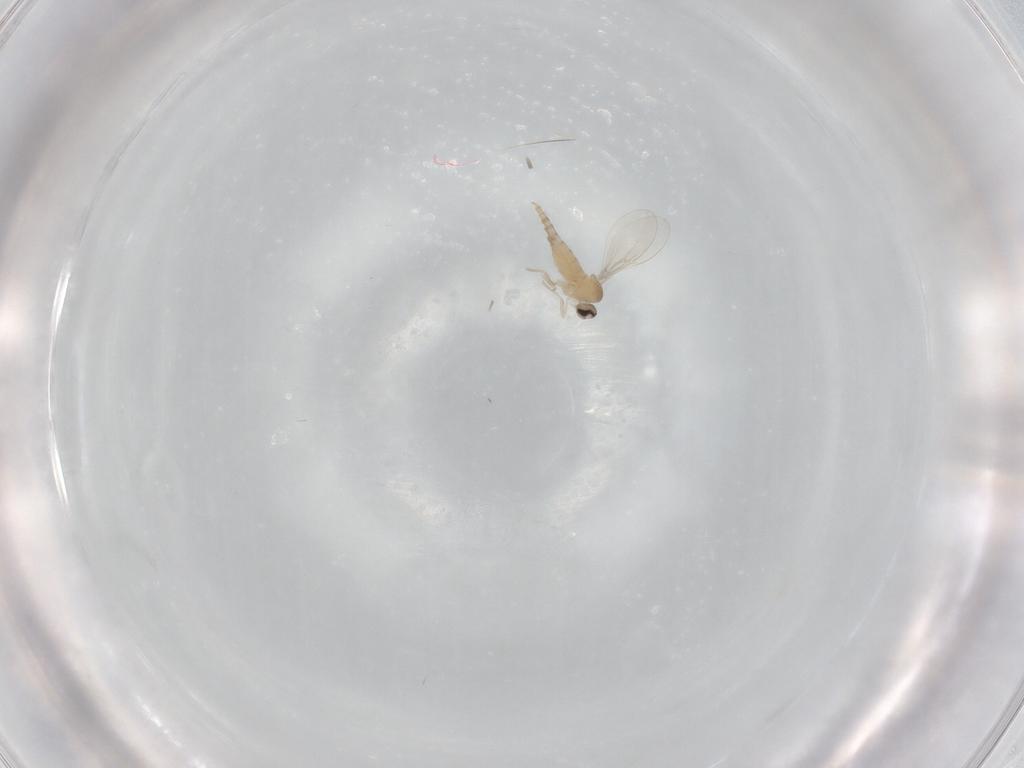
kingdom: Animalia
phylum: Arthropoda
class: Insecta
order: Diptera
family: Cecidomyiidae
